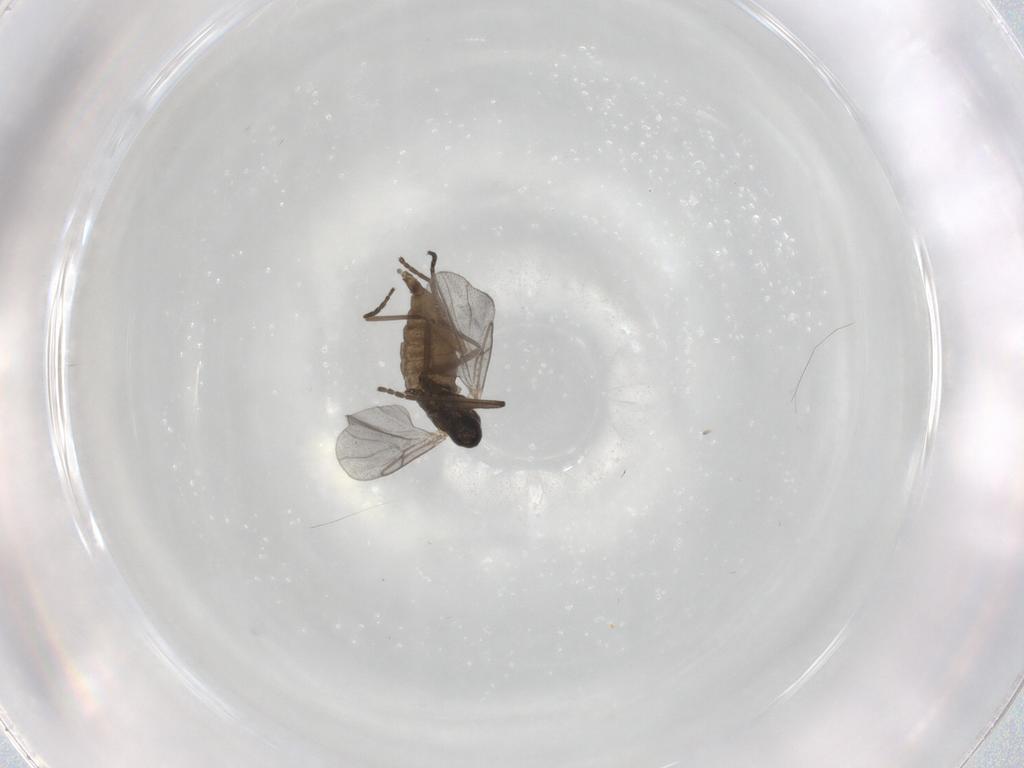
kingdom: Animalia
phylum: Arthropoda
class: Insecta
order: Diptera
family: Cecidomyiidae
